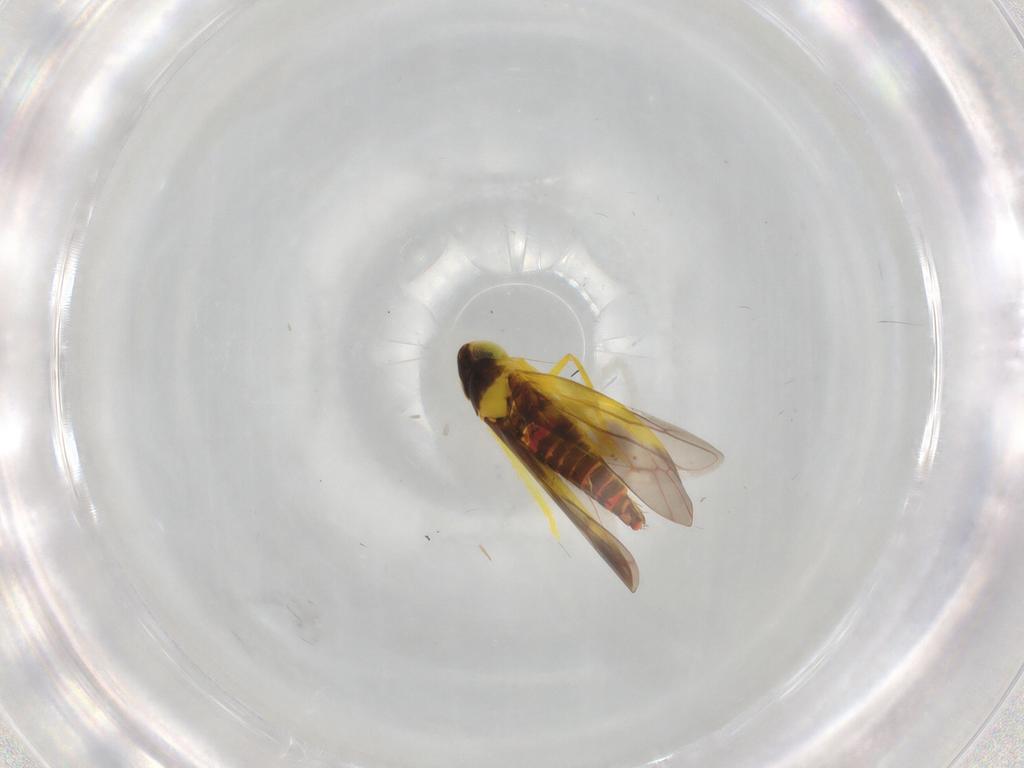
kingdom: Animalia
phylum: Arthropoda
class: Insecta
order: Hemiptera
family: Cicadellidae
